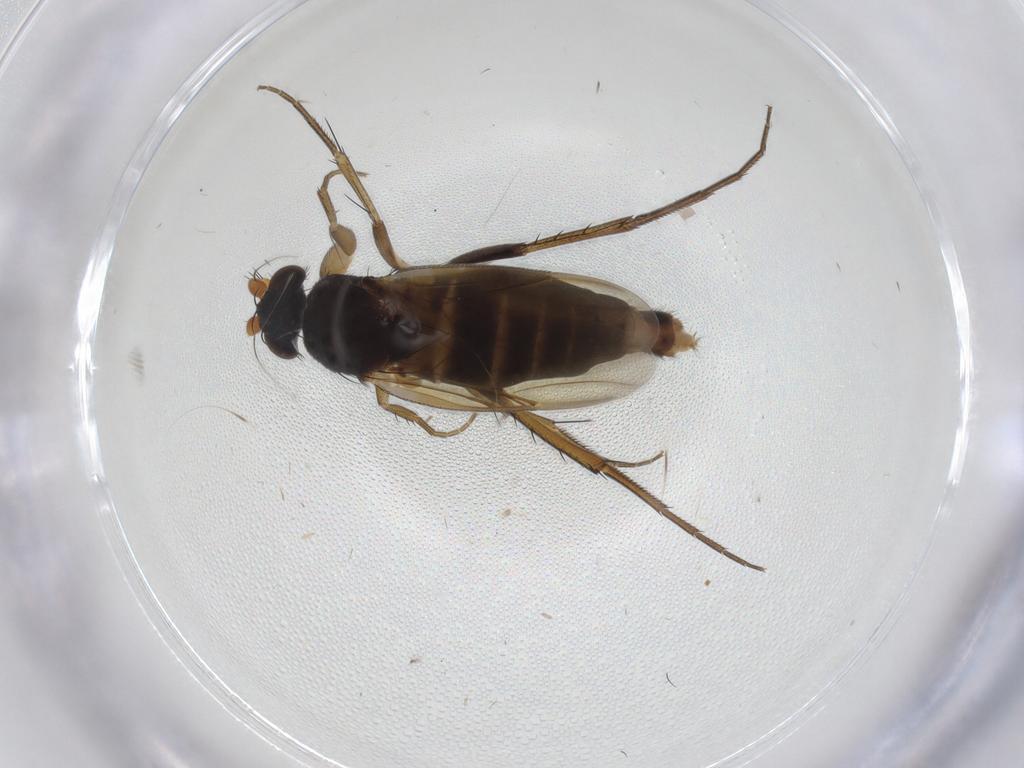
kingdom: Animalia
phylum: Arthropoda
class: Insecta
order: Diptera
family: Phoridae
